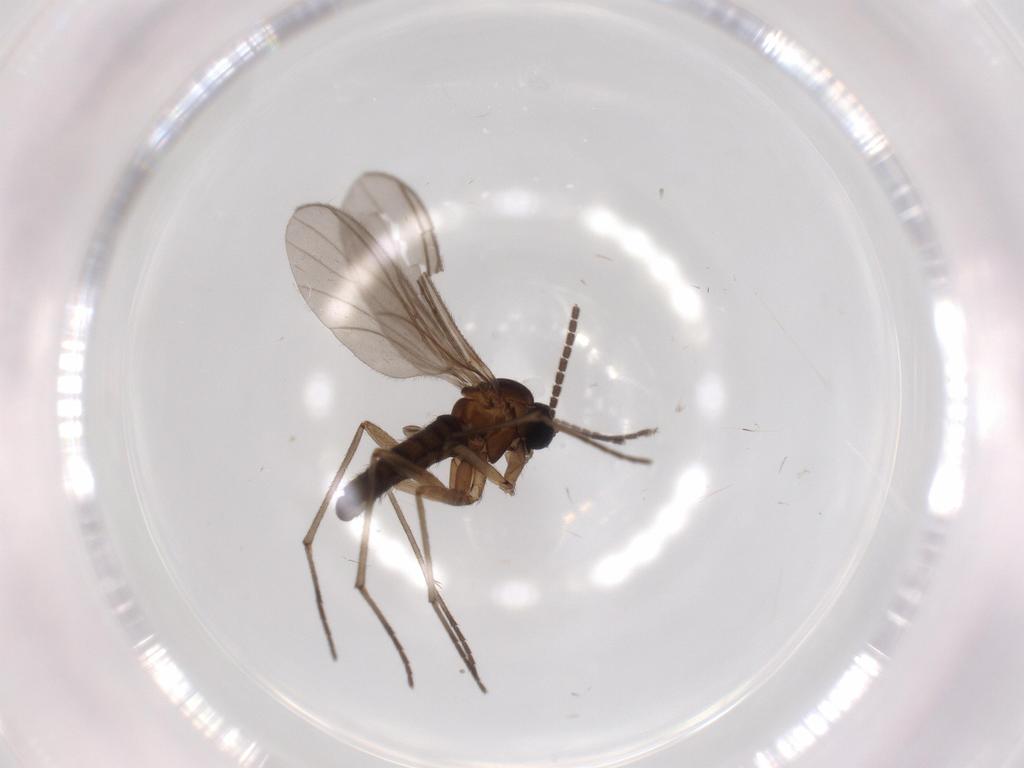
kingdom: Animalia
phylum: Arthropoda
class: Insecta
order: Diptera
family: Sciaridae
